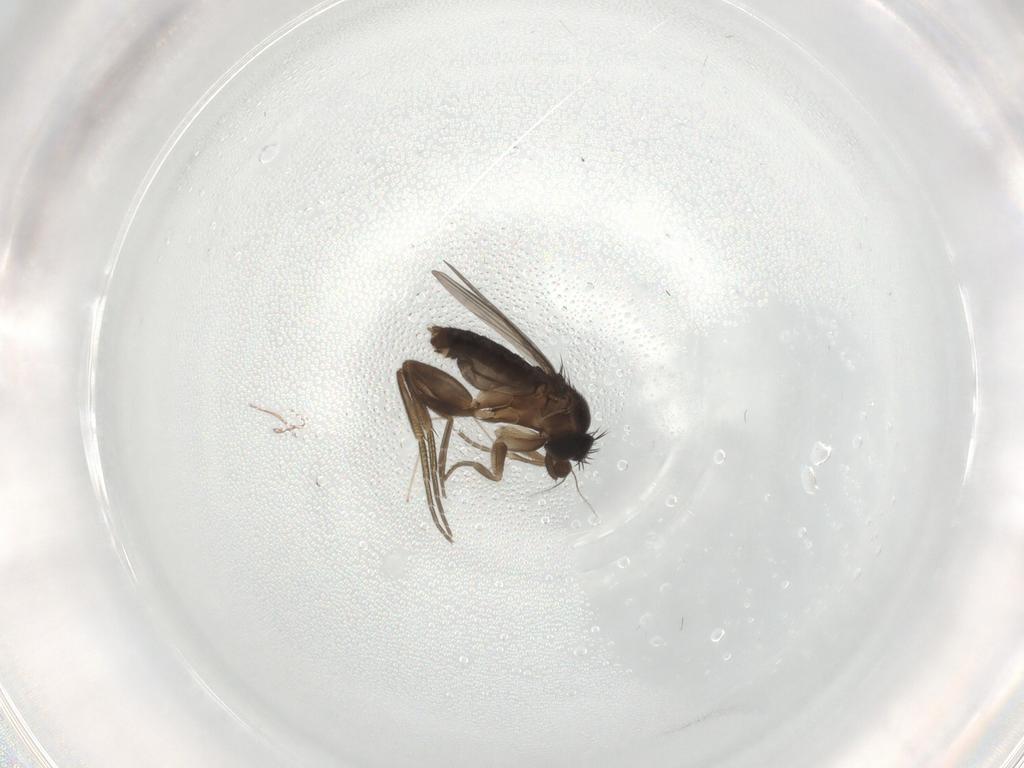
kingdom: Animalia
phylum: Arthropoda
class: Insecta
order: Diptera
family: Phoridae
